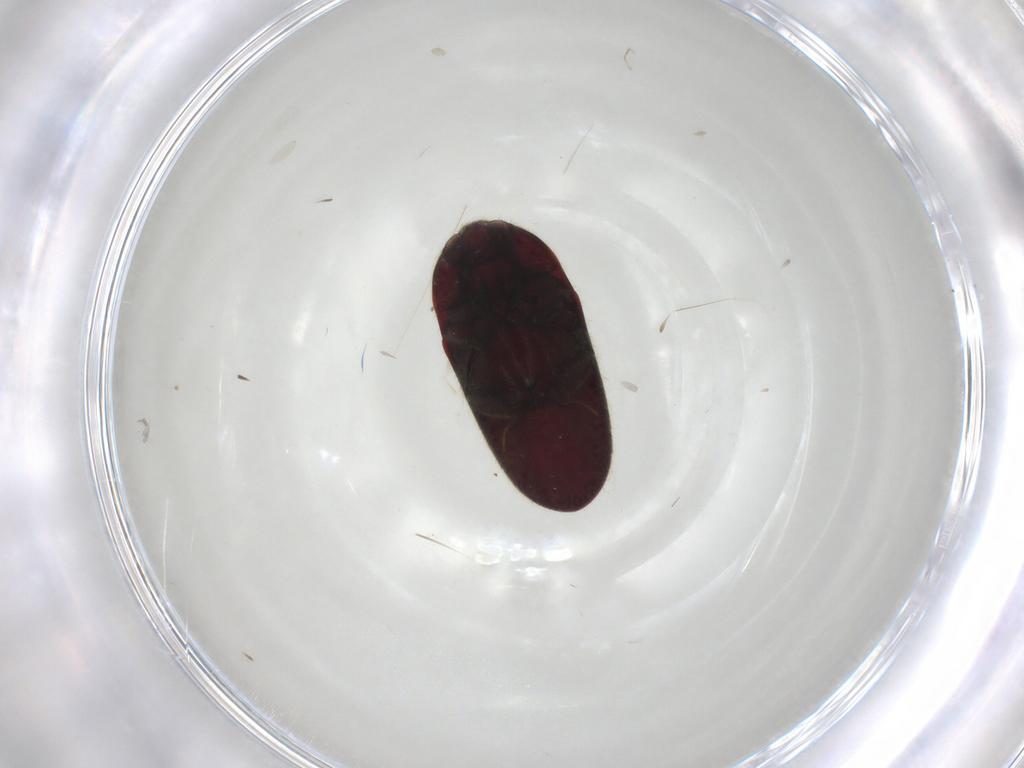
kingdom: Animalia
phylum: Arthropoda
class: Insecta
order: Coleoptera
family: Throscidae
